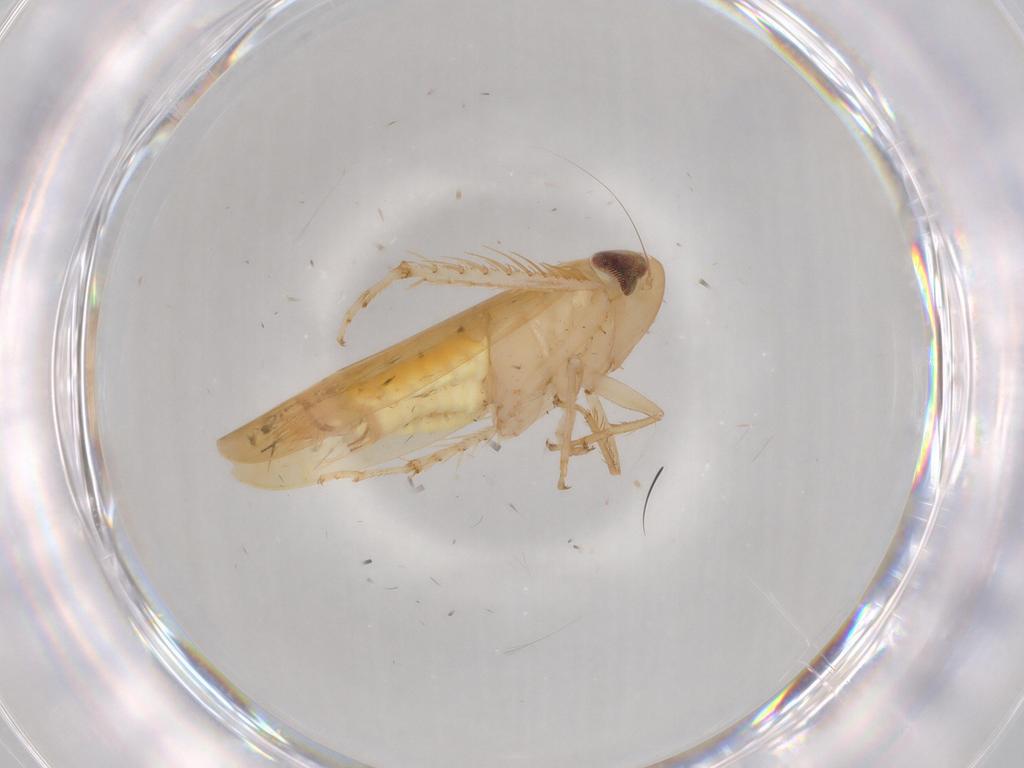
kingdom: Animalia
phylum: Arthropoda
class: Insecta
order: Hemiptera
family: Cicadellidae
